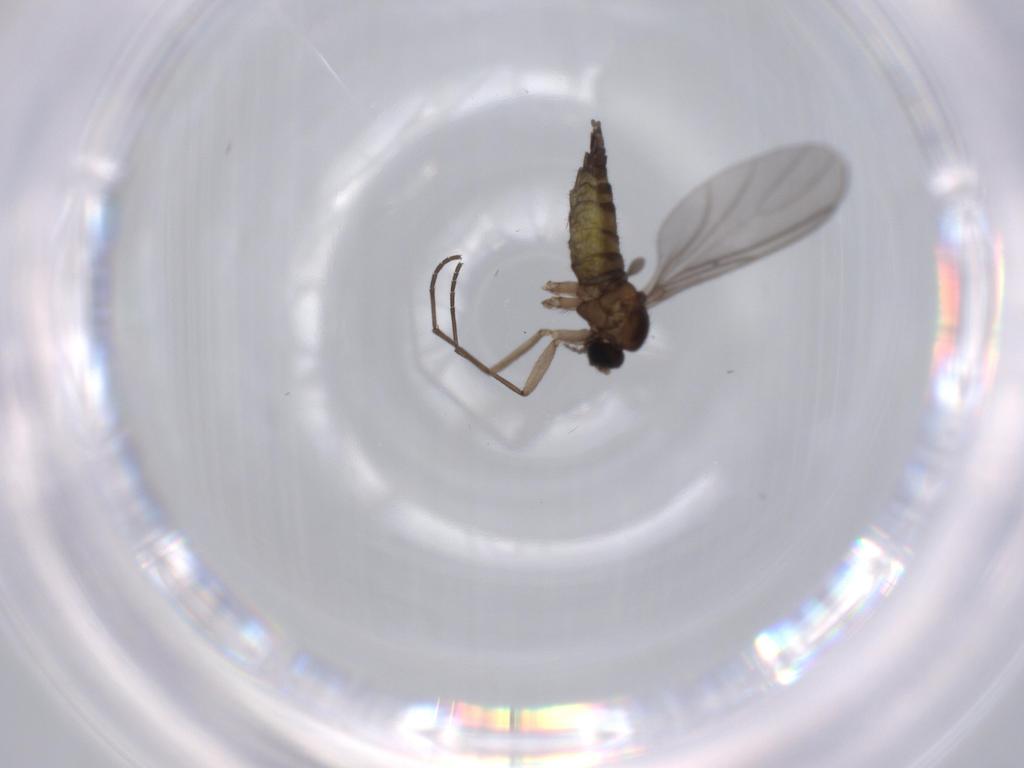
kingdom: Animalia
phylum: Arthropoda
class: Insecta
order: Diptera
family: Sciaridae
